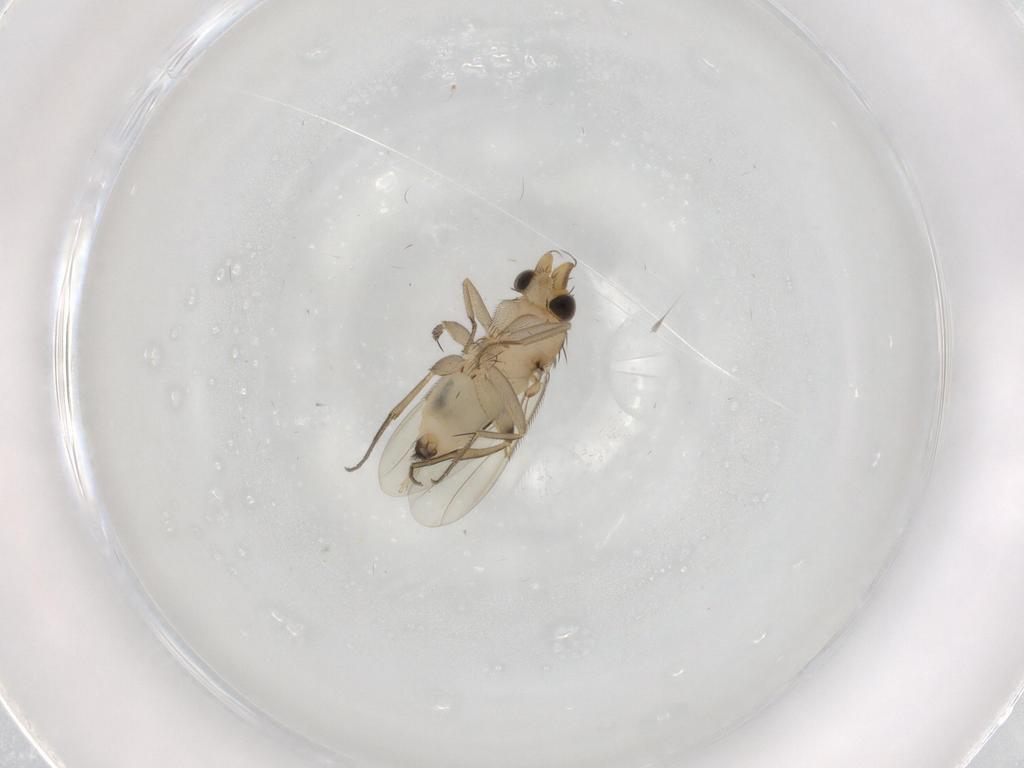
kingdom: Animalia
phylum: Arthropoda
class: Insecta
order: Diptera
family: Phoridae
